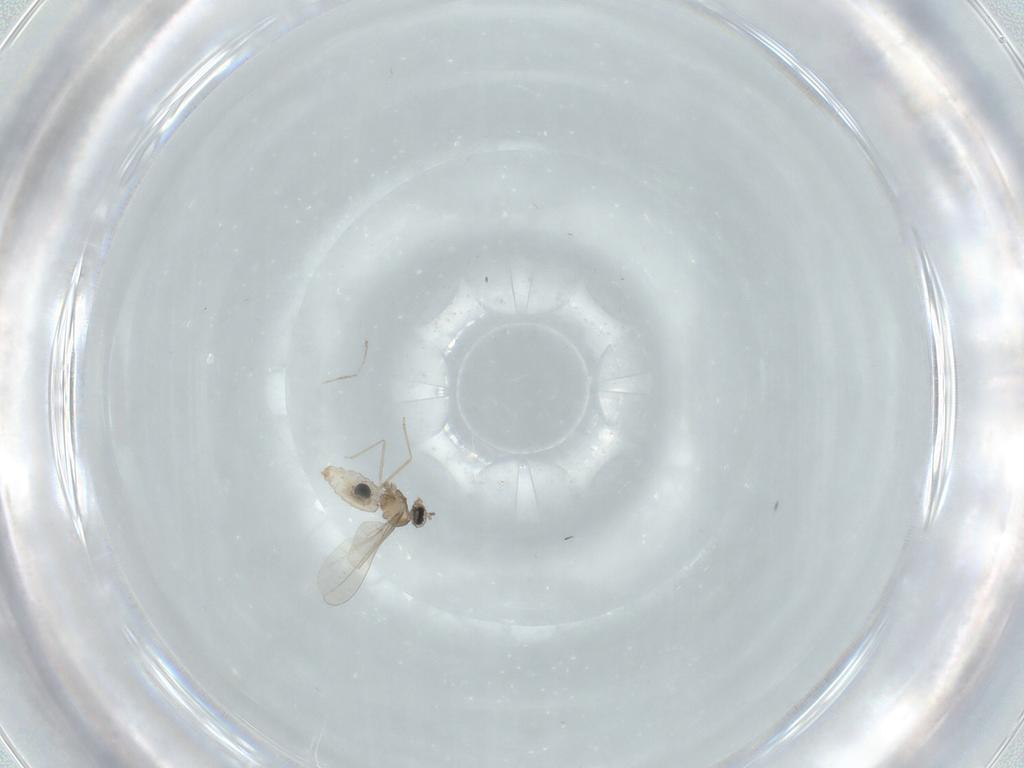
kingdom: Animalia
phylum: Arthropoda
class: Insecta
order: Diptera
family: Psychodidae
